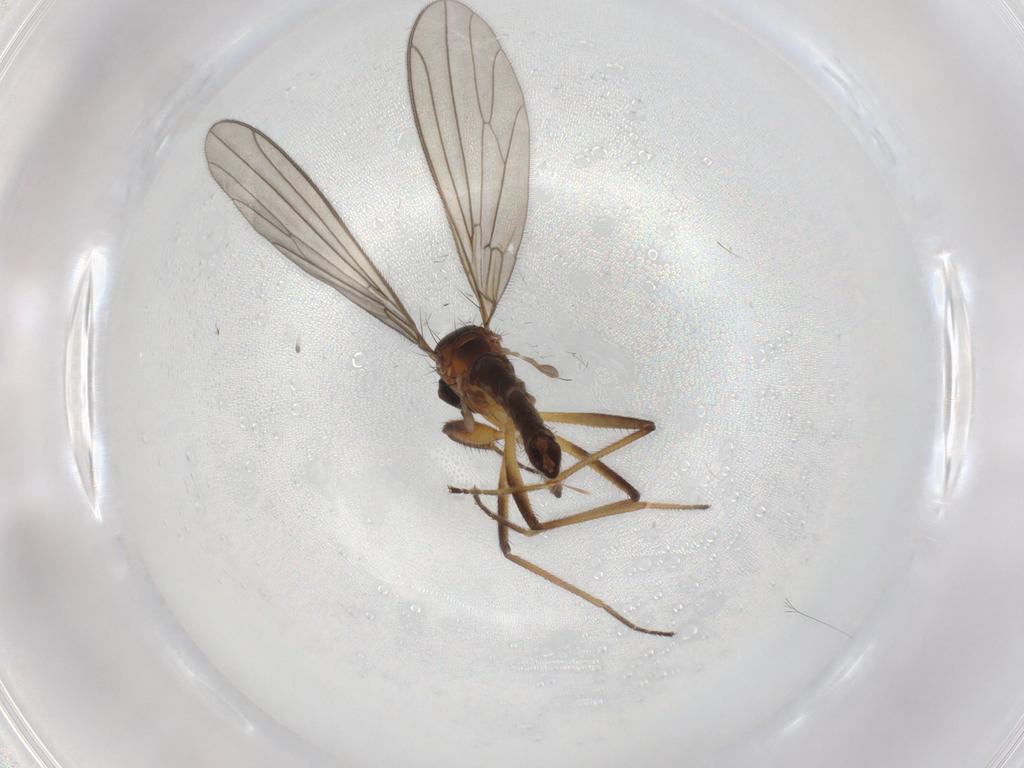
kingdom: Animalia
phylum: Arthropoda
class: Insecta
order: Diptera
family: Empididae
